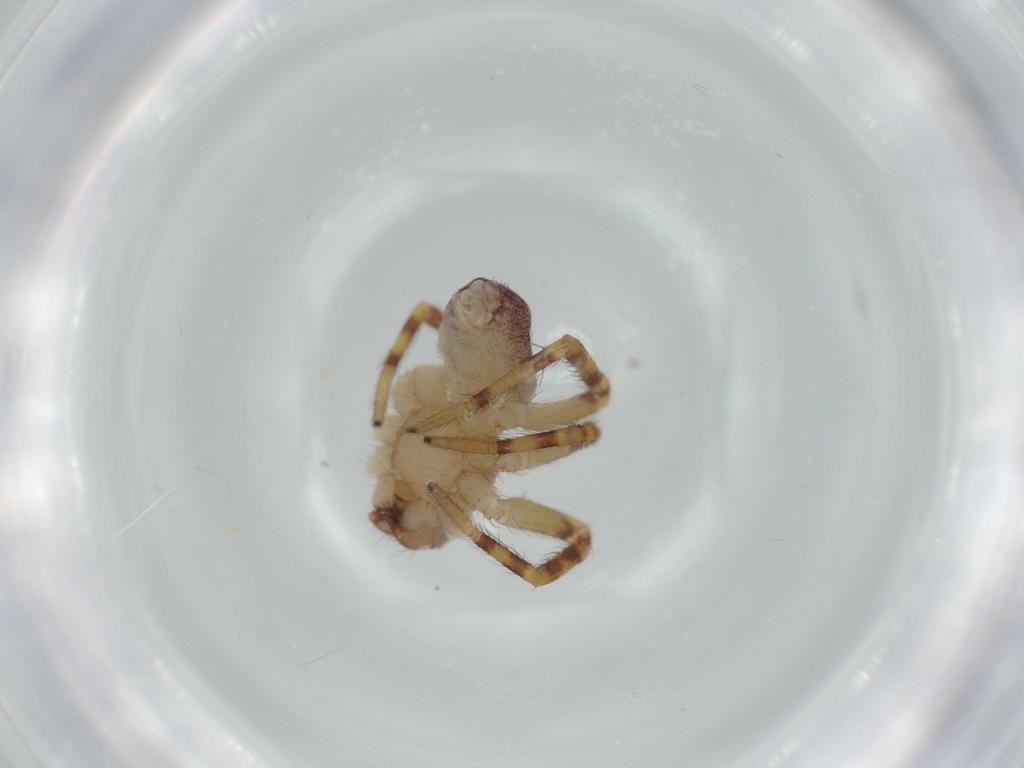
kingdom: Animalia
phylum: Arthropoda
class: Arachnida
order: Araneae
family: Corinnidae
